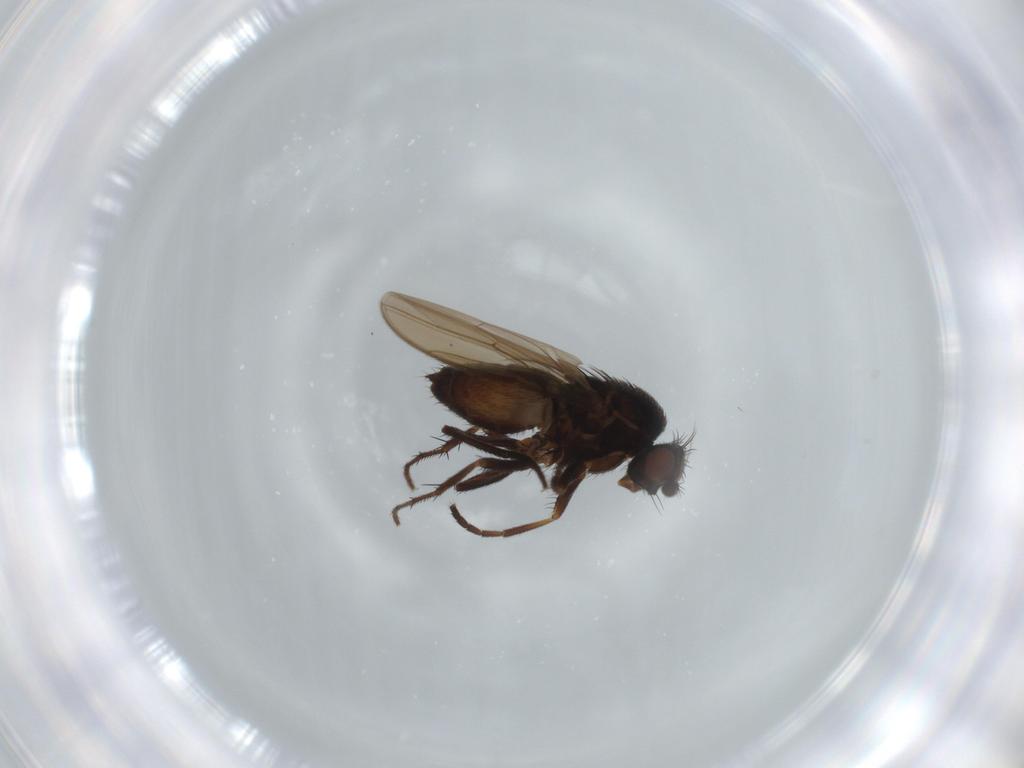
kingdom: Animalia
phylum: Arthropoda
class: Insecta
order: Diptera
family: Sphaeroceridae
